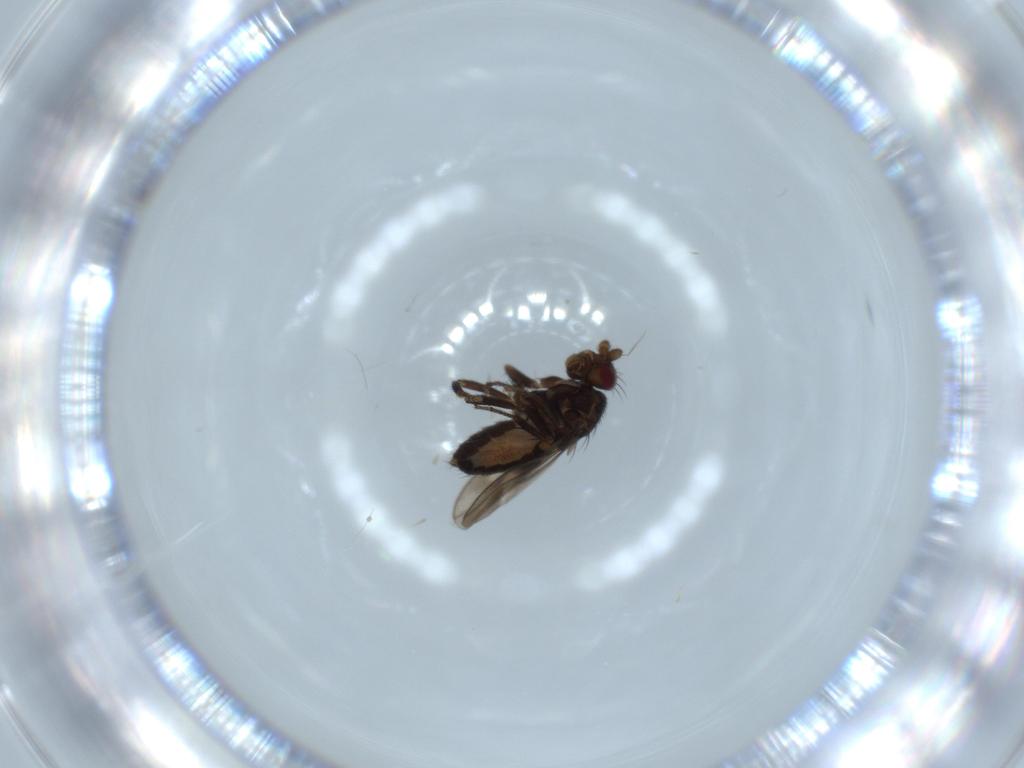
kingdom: Animalia
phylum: Arthropoda
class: Insecta
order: Diptera
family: Sphaeroceridae
